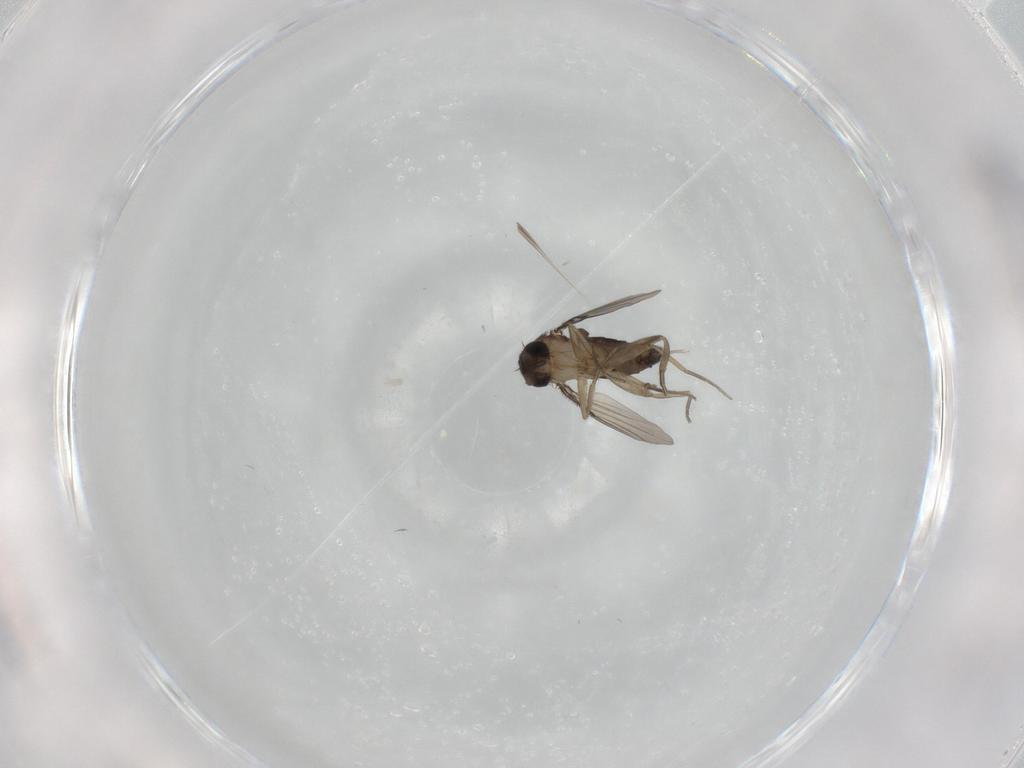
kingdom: Animalia
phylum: Arthropoda
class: Insecta
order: Diptera
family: Phoridae
